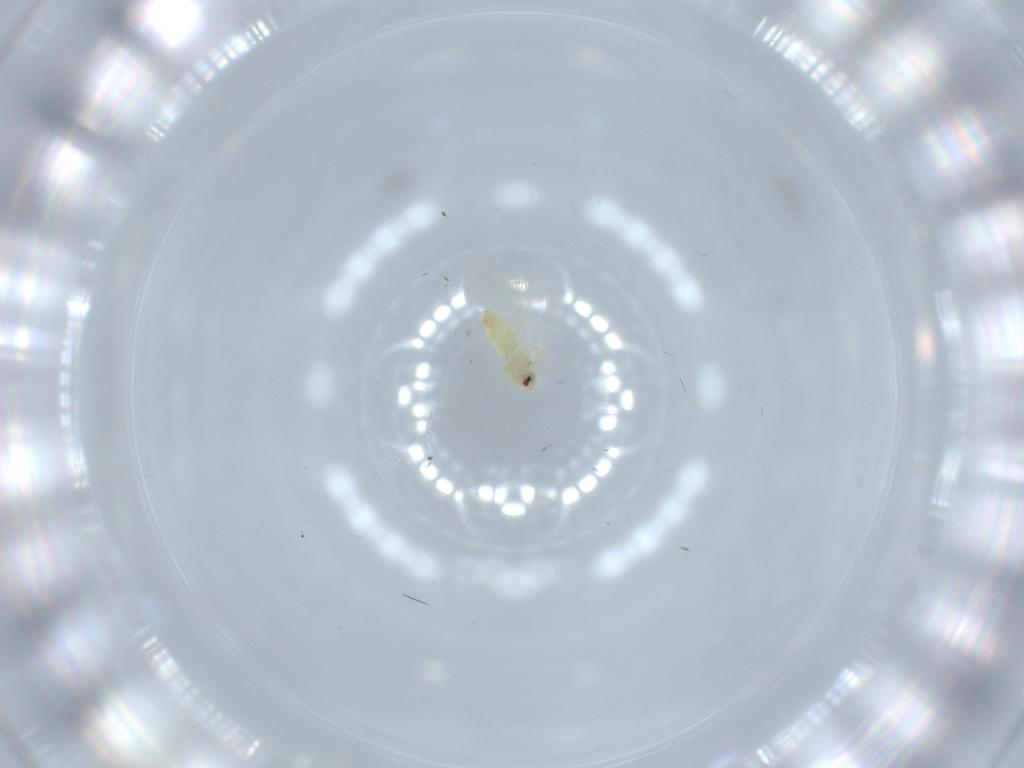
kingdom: Animalia
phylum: Arthropoda
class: Insecta
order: Hemiptera
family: Aleyrodidae
